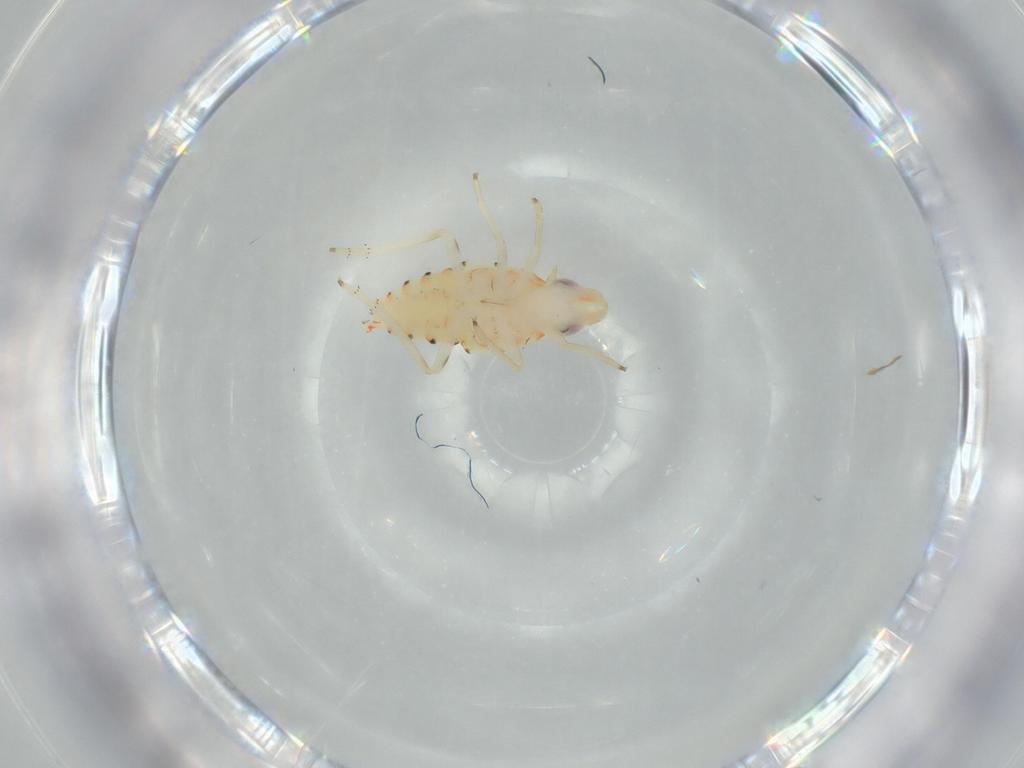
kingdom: Animalia
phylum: Arthropoda
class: Insecta
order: Hemiptera
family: Tropiduchidae
